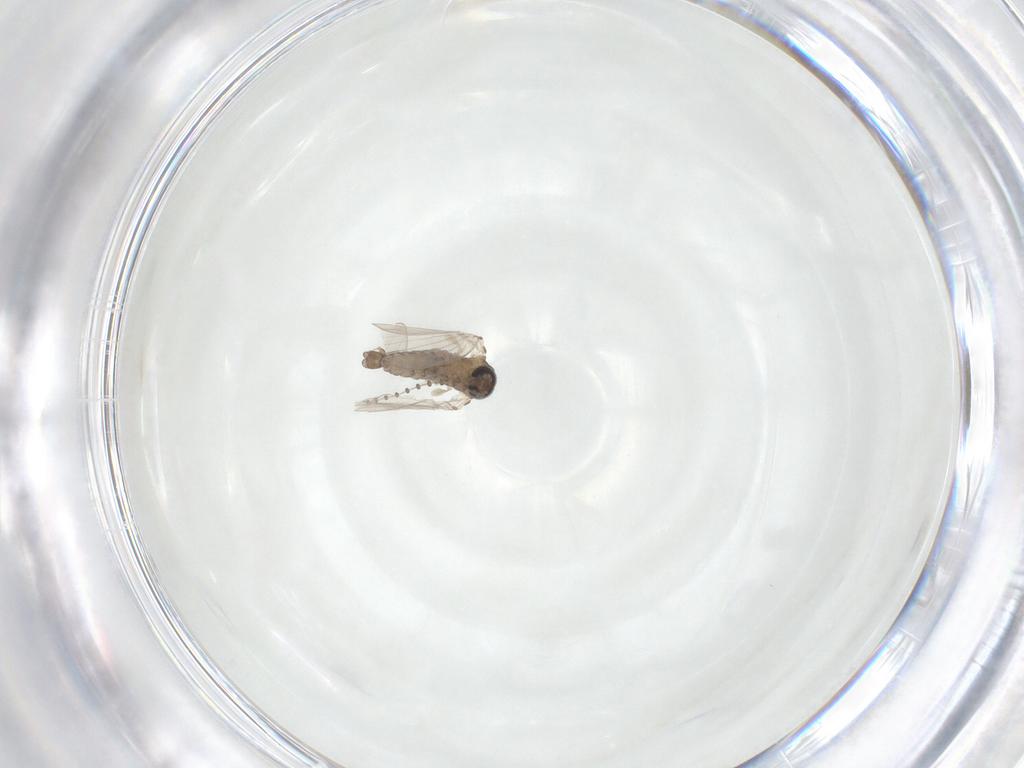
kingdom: Animalia
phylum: Arthropoda
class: Insecta
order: Diptera
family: Psychodidae
